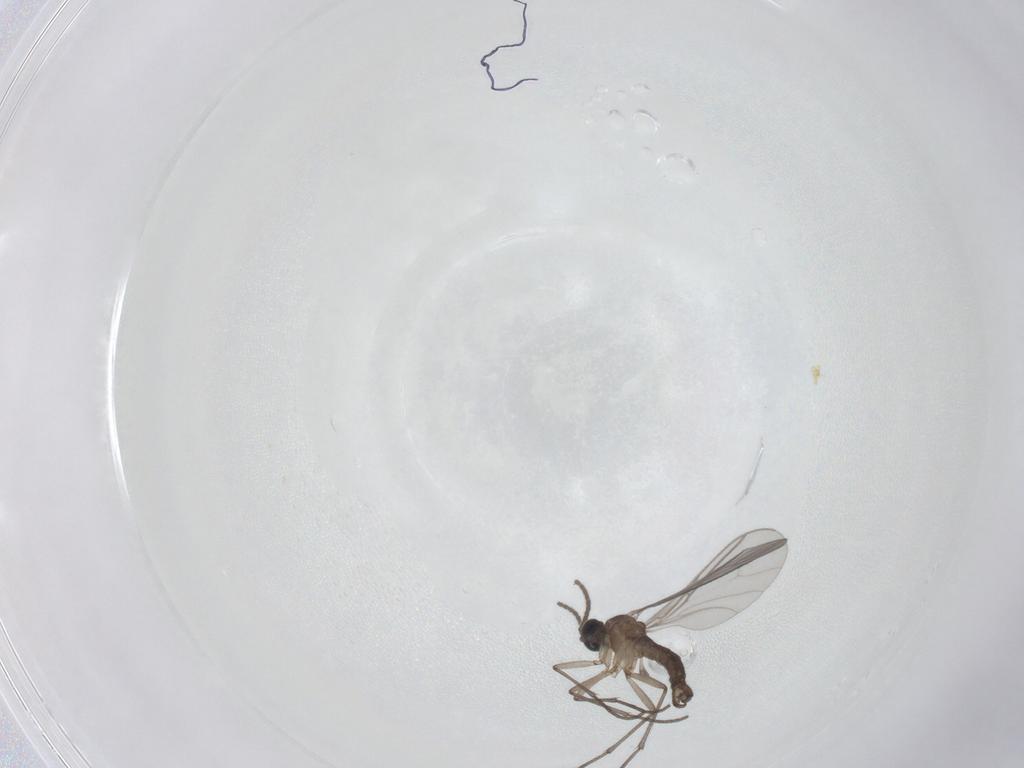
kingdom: Animalia
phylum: Arthropoda
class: Insecta
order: Diptera
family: Sciaridae
